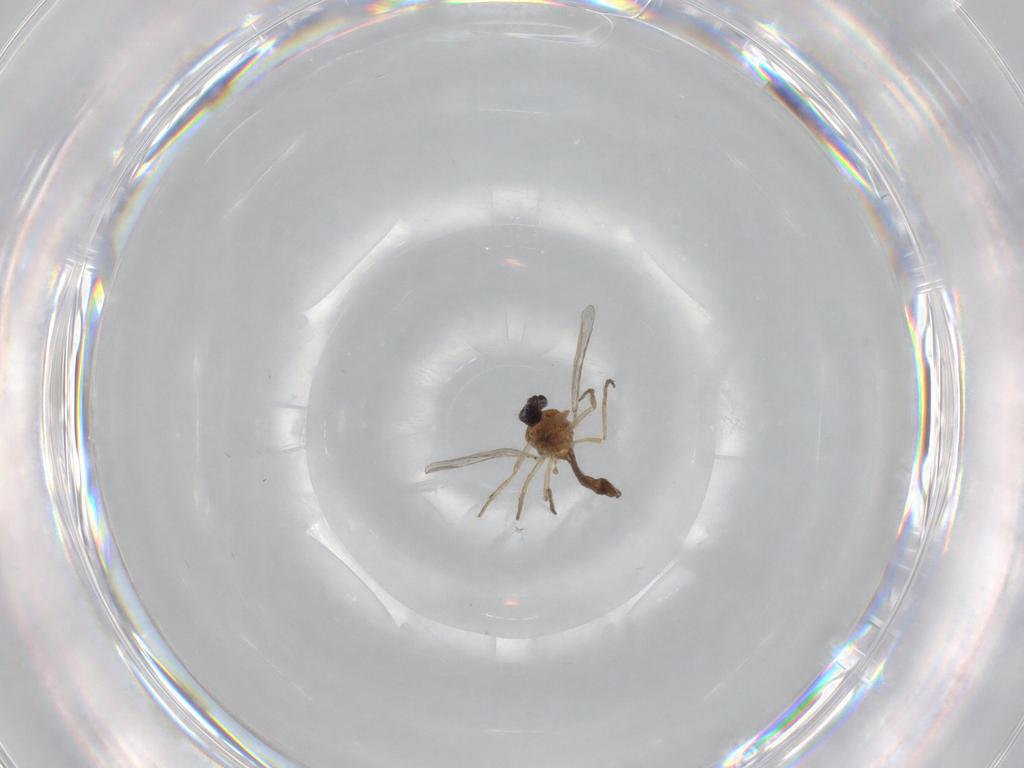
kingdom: Animalia
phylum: Arthropoda
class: Insecta
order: Diptera
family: Chironomidae
